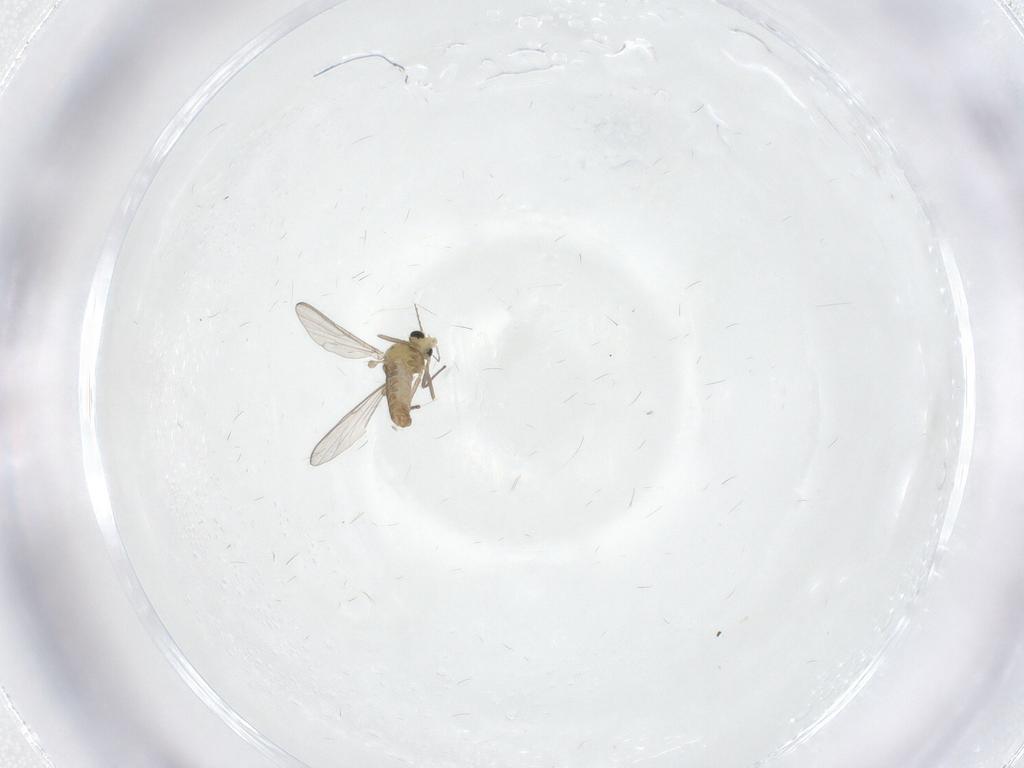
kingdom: Animalia
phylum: Arthropoda
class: Insecta
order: Diptera
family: Chironomidae
